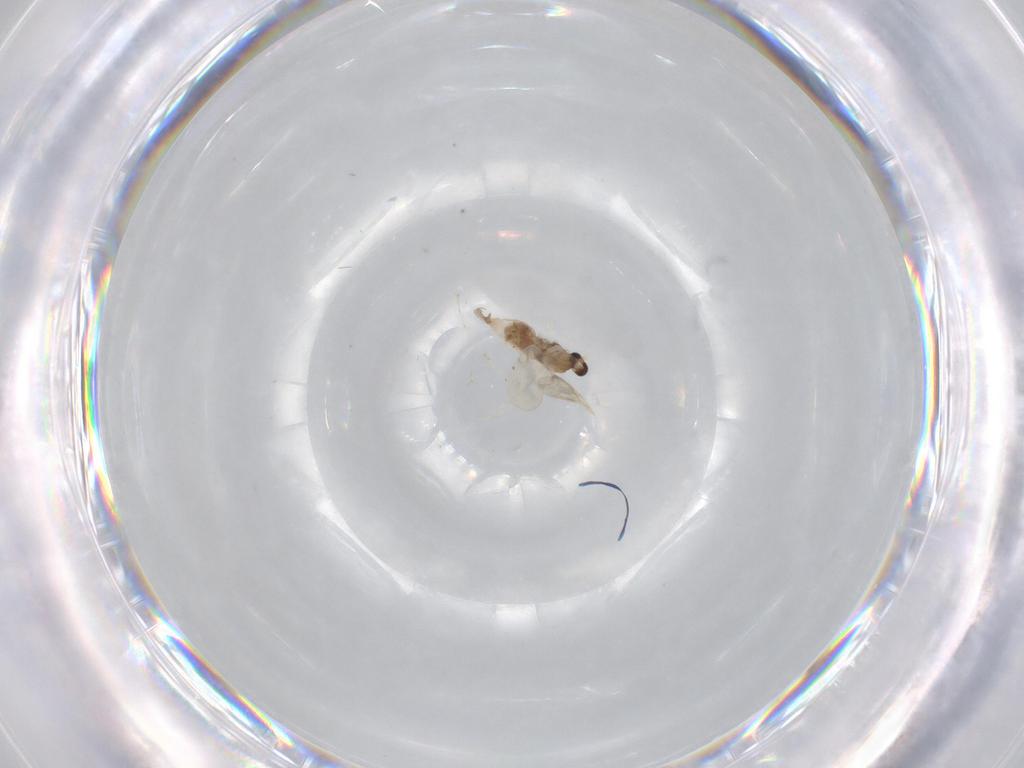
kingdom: Animalia
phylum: Arthropoda
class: Insecta
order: Diptera
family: Cecidomyiidae
